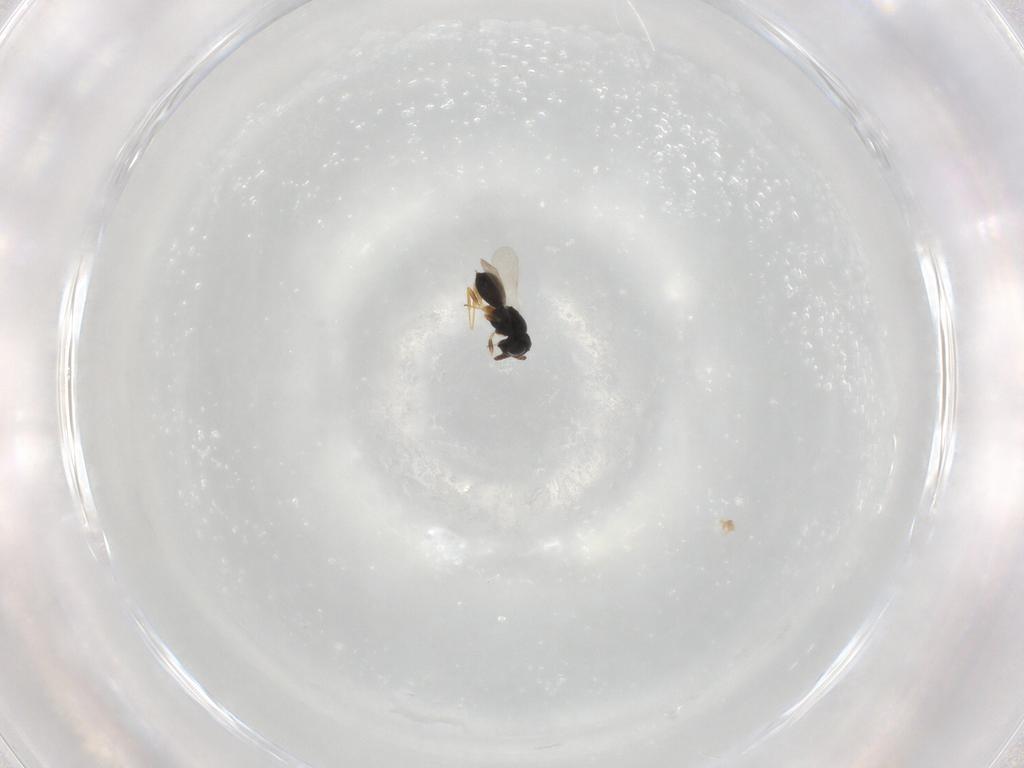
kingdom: Animalia
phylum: Arthropoda
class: Insecta
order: Hymenoptera
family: Scelionidae
